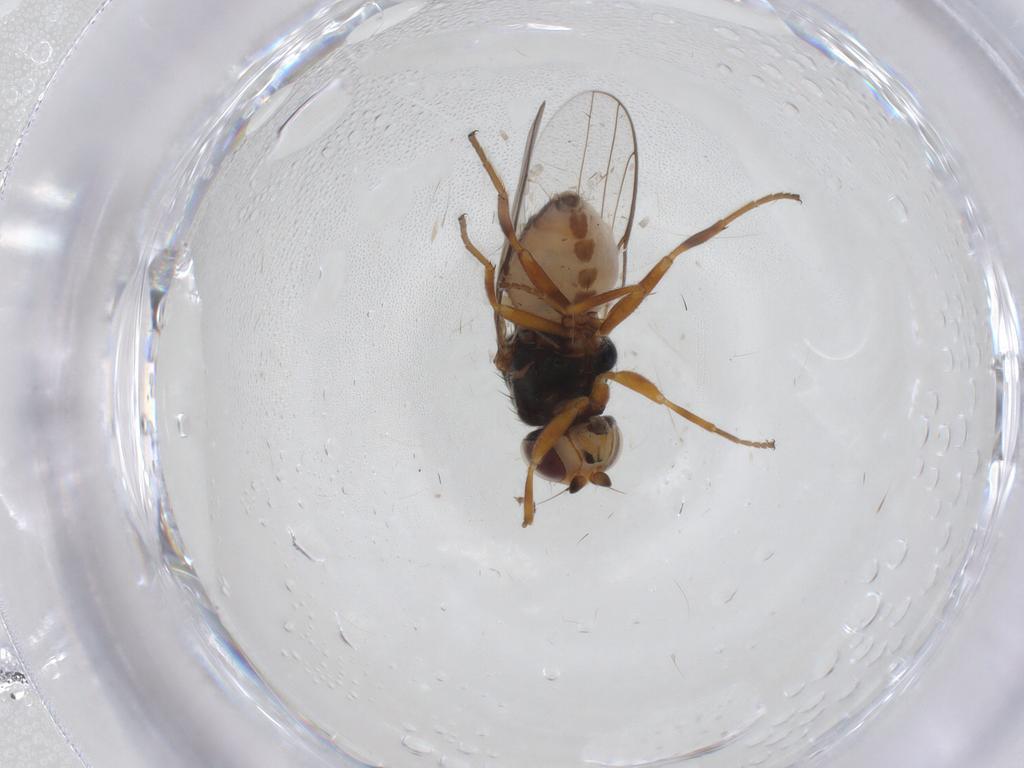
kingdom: Animalia
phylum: Arthropoda
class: Insecta
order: Diptera
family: Chloropidae
